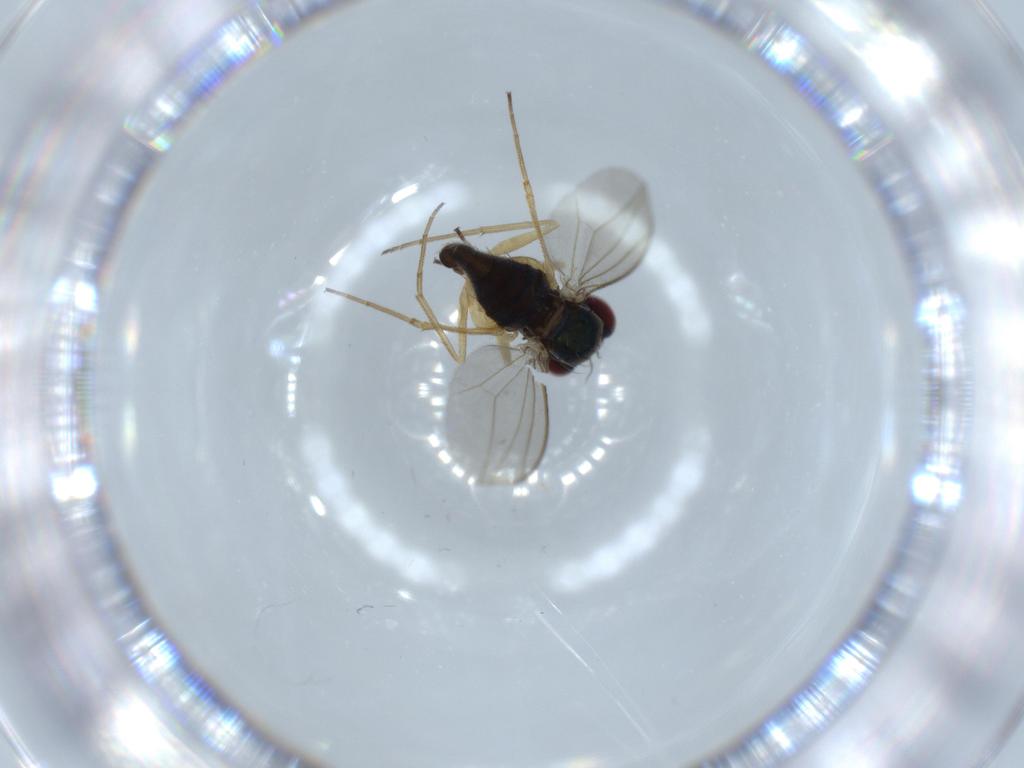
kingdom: Animalia
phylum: Arthropoda
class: Insecta
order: Diptera
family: Dolichopodidae
